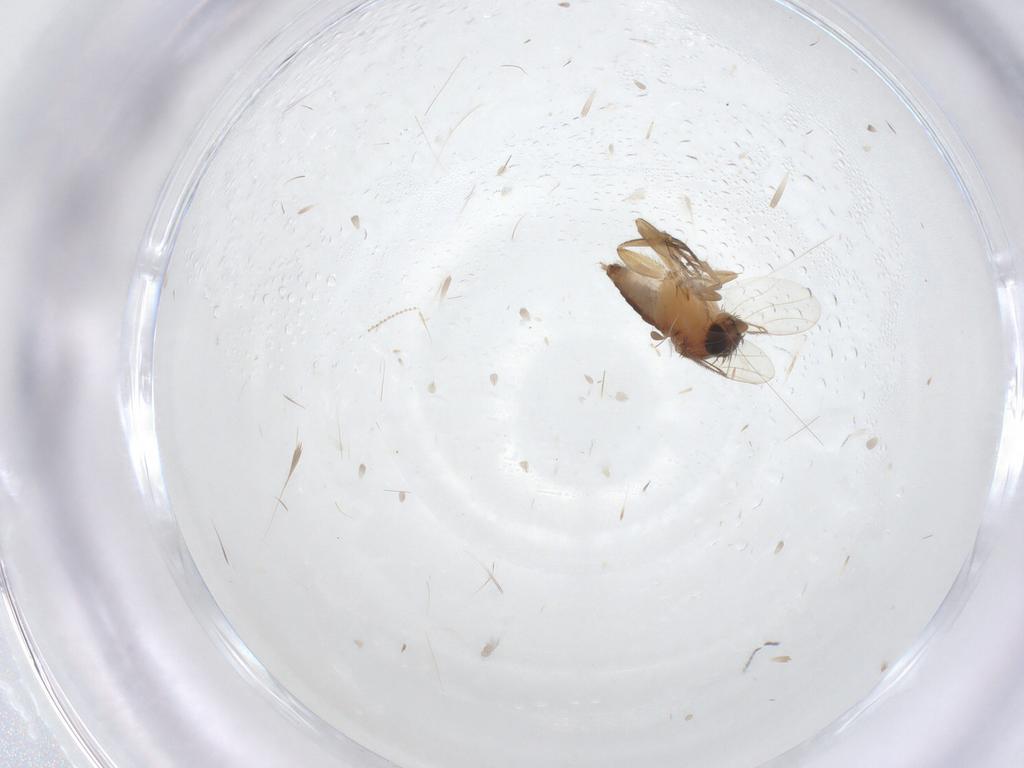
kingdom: Animalia
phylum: Arthropoda
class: Insecta
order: Diptera
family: Phoridae
